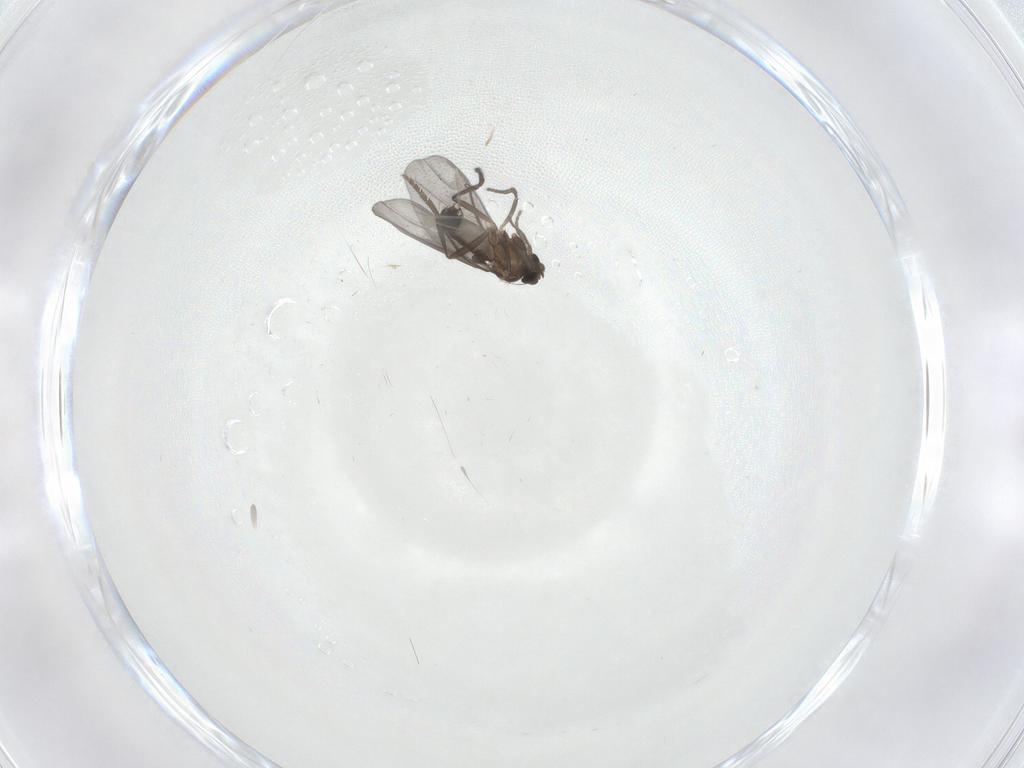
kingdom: Animalia
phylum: Arthropoda
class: Insecta
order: Diptera
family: Phoridae
